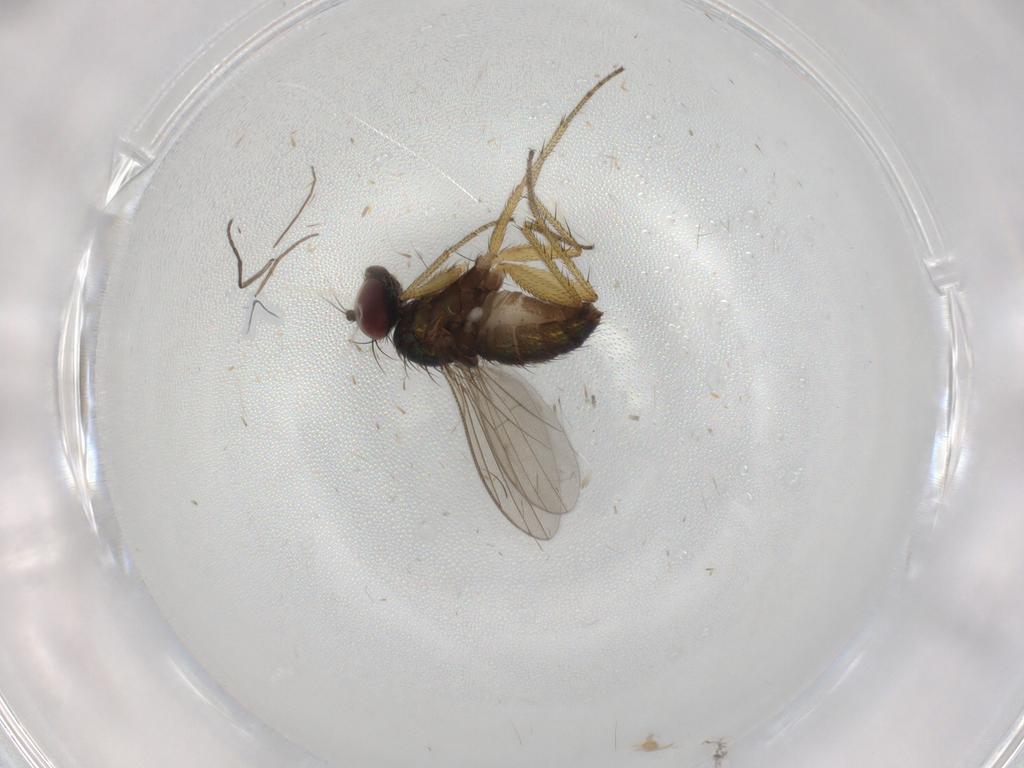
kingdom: Animalia
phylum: Arthropoda
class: Insecta
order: Diptera
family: Sciaridae
